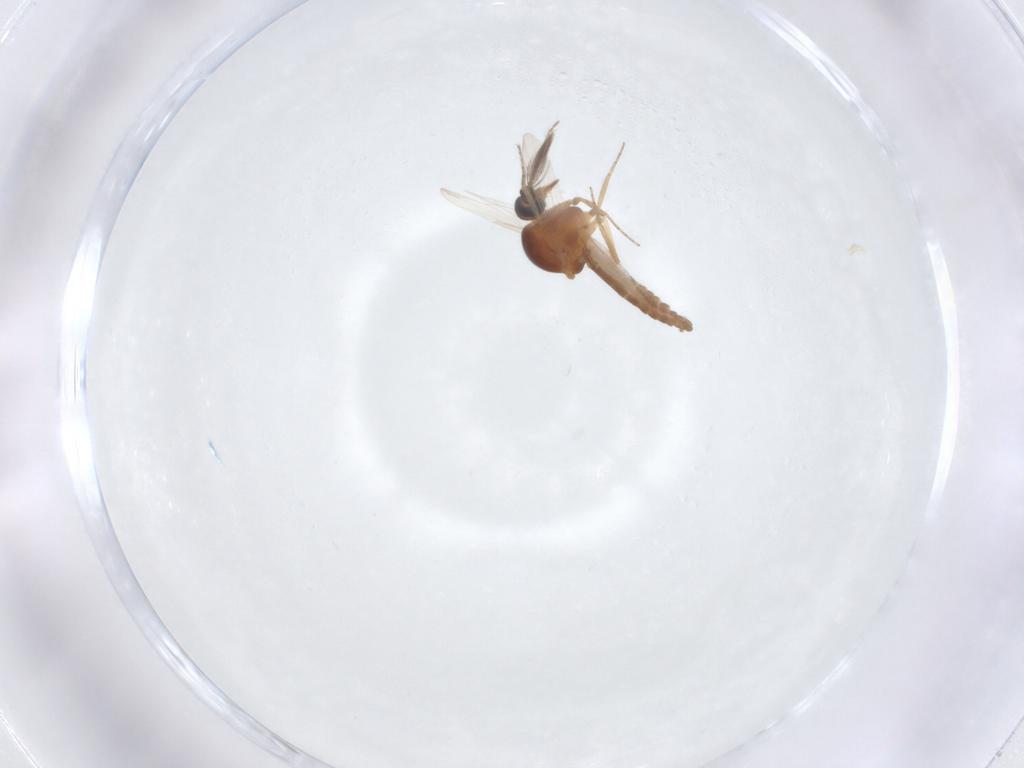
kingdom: Animalia
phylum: Arthropoda
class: Insecta
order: Diptera
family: Ceratopogonidae
